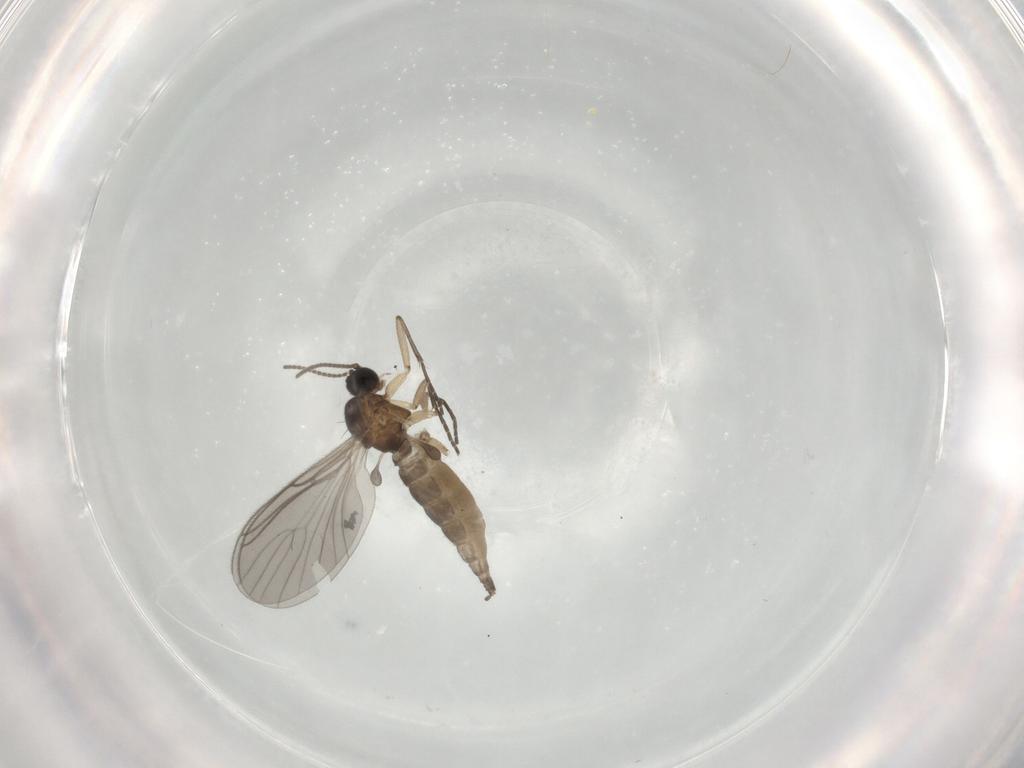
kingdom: Animalia
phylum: Arthropoda
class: Insecta
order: Diptera
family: Sciaridae
